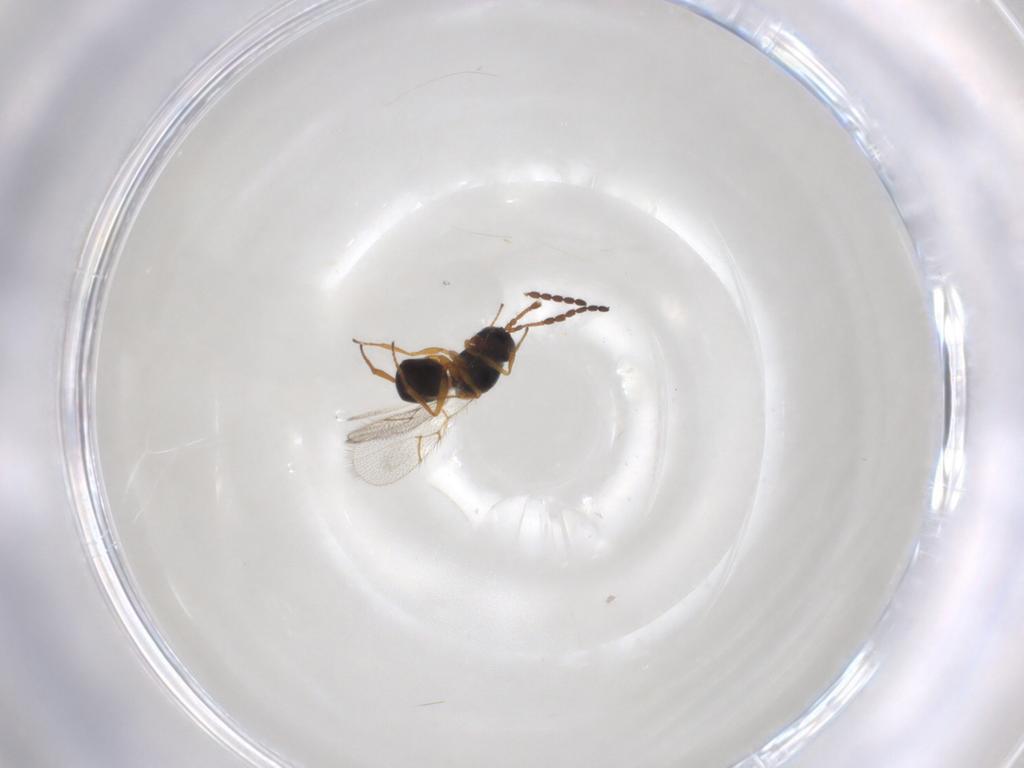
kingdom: Animalia
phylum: Arthropoda
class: Insecta
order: Hymenoptera
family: Figitidae
